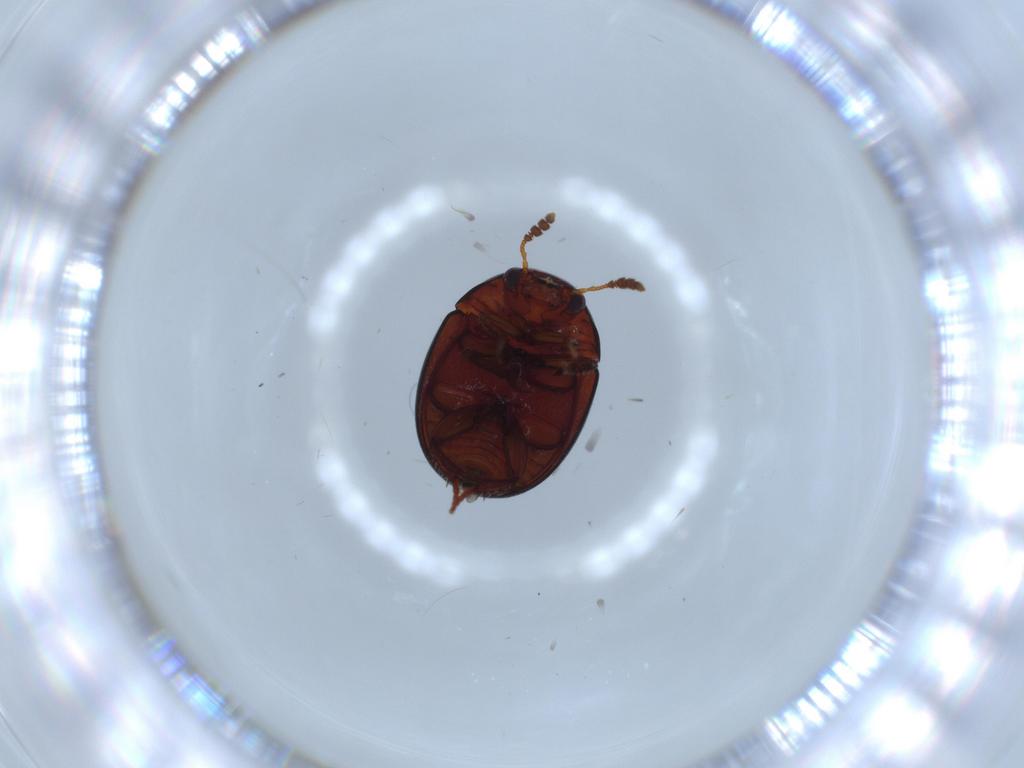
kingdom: Animalia
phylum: Arthropoda
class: Insecta
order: Coleoptera
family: Leiodidae
